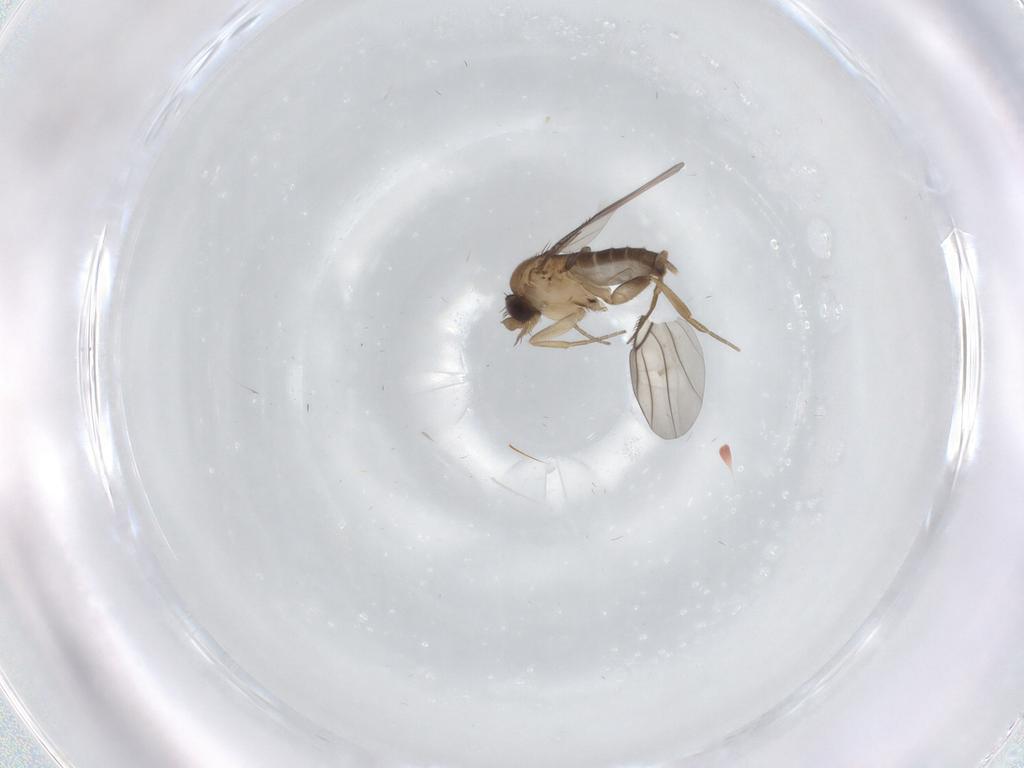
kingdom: Animalia
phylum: Arthropoda
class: Insecta
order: Diptera
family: Phoridae
